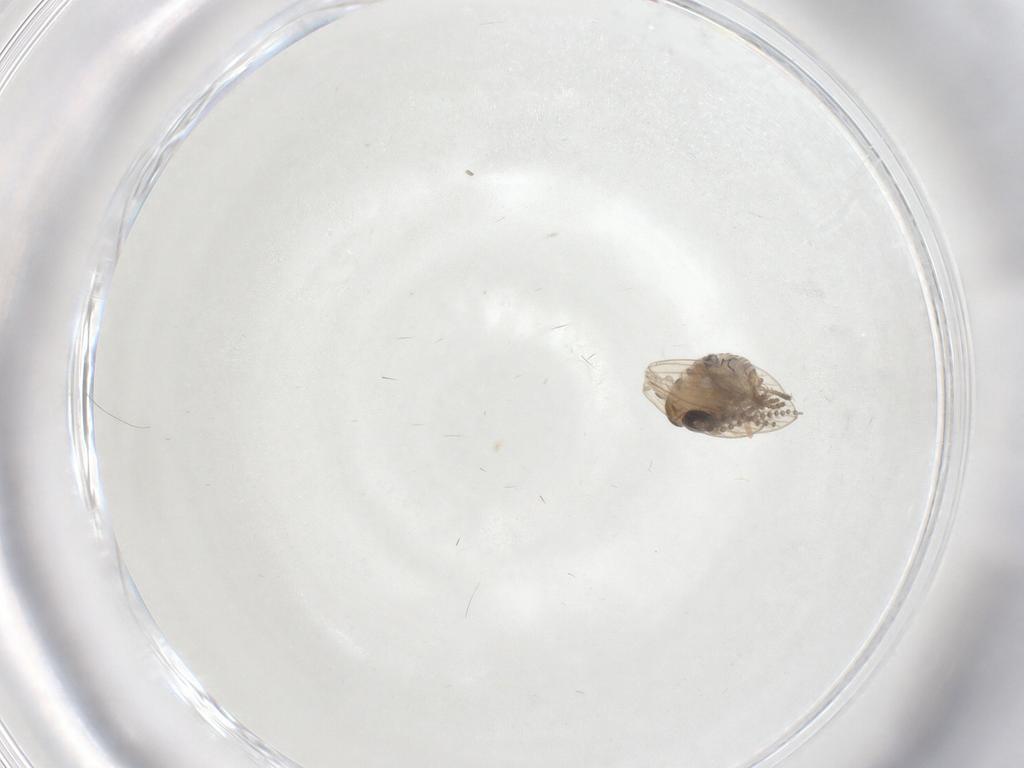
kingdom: Animalia
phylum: Arthropoda
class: Insecta
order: Diptera
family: Psychodidae
